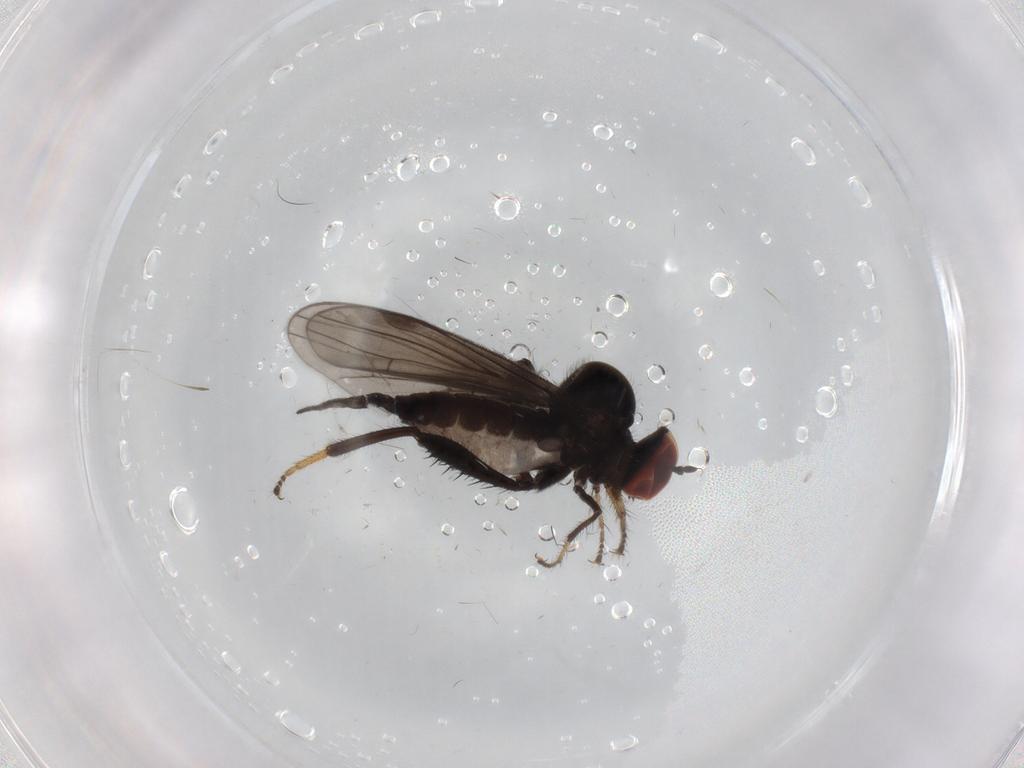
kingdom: Animalia
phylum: Arthropoda
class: Insecta
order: Diptera
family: Hybotidae
